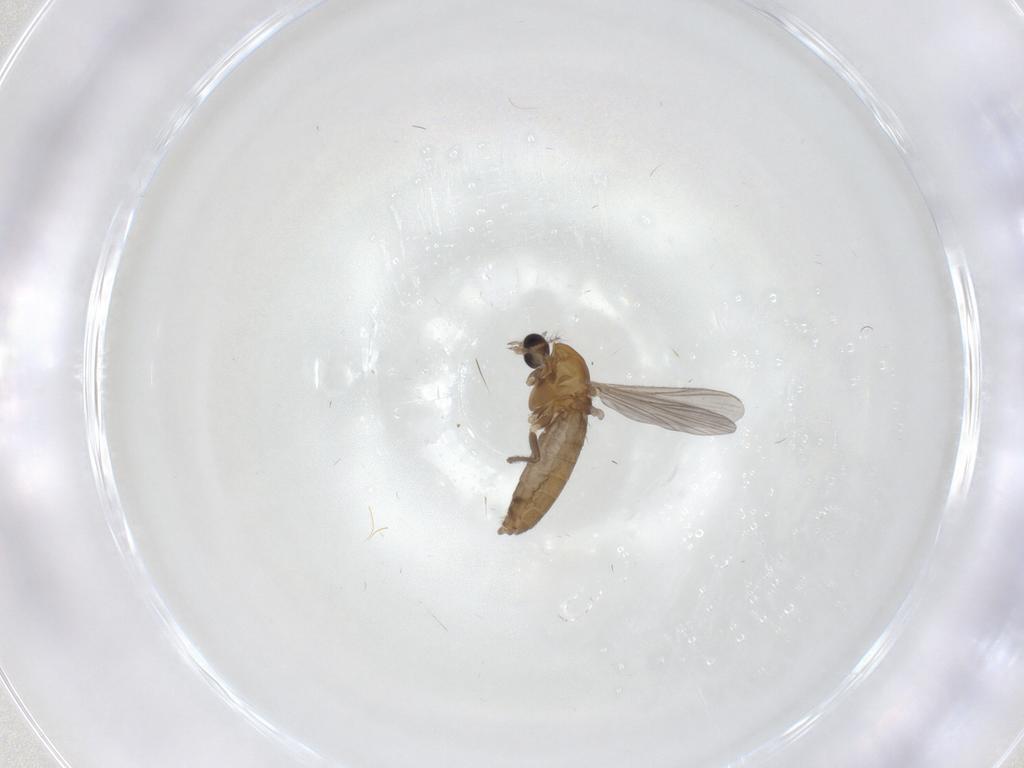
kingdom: Animalia
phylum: Arthropoda
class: Insecta
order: Diptera
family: Chironomidae
